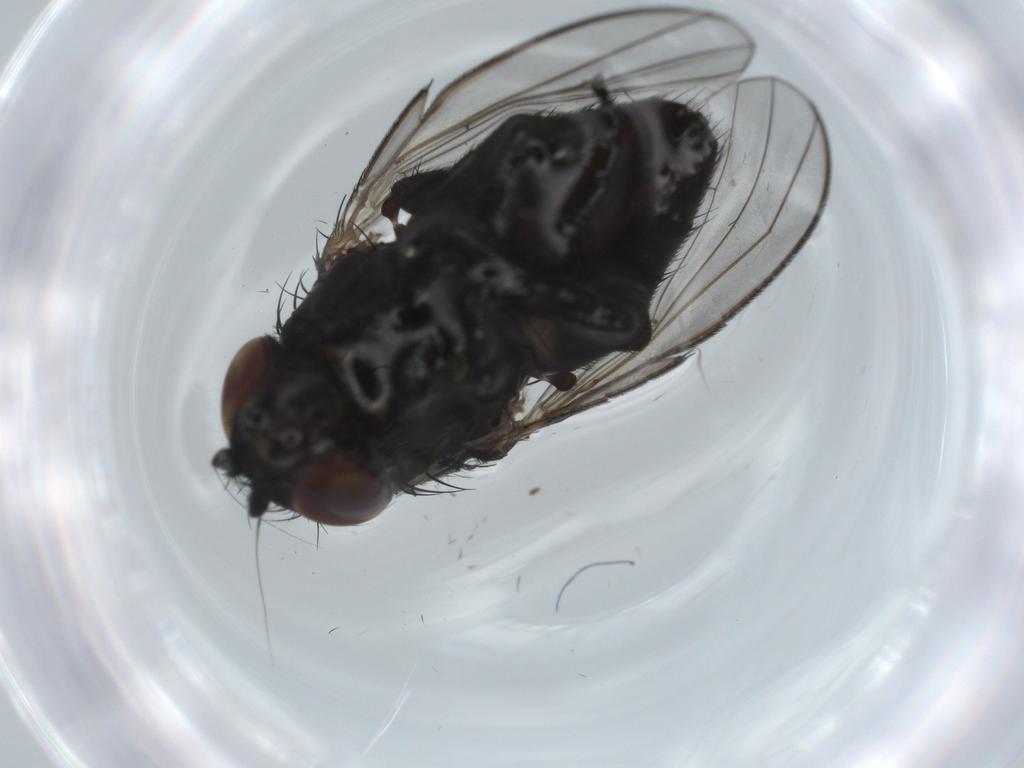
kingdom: Animalia
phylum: Arthropoda
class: Insecta
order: Diptera
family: Milichiidae
